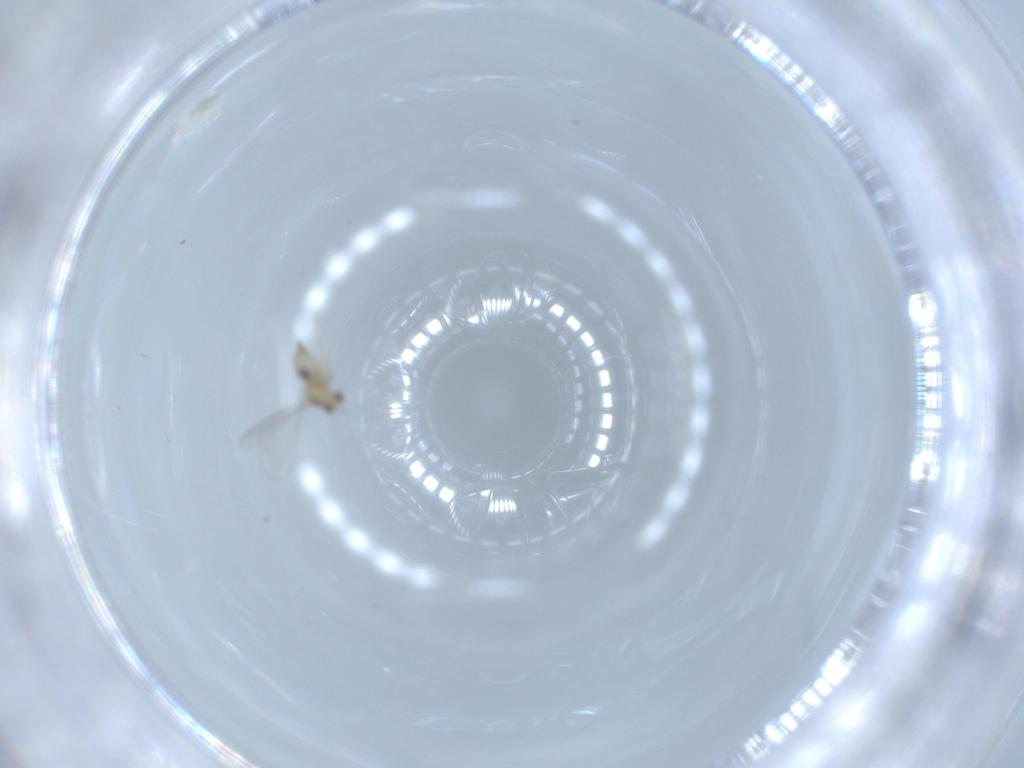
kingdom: Animalia
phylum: Arthropoda
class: Insecta
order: Diptera
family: Cecidomyiidae
